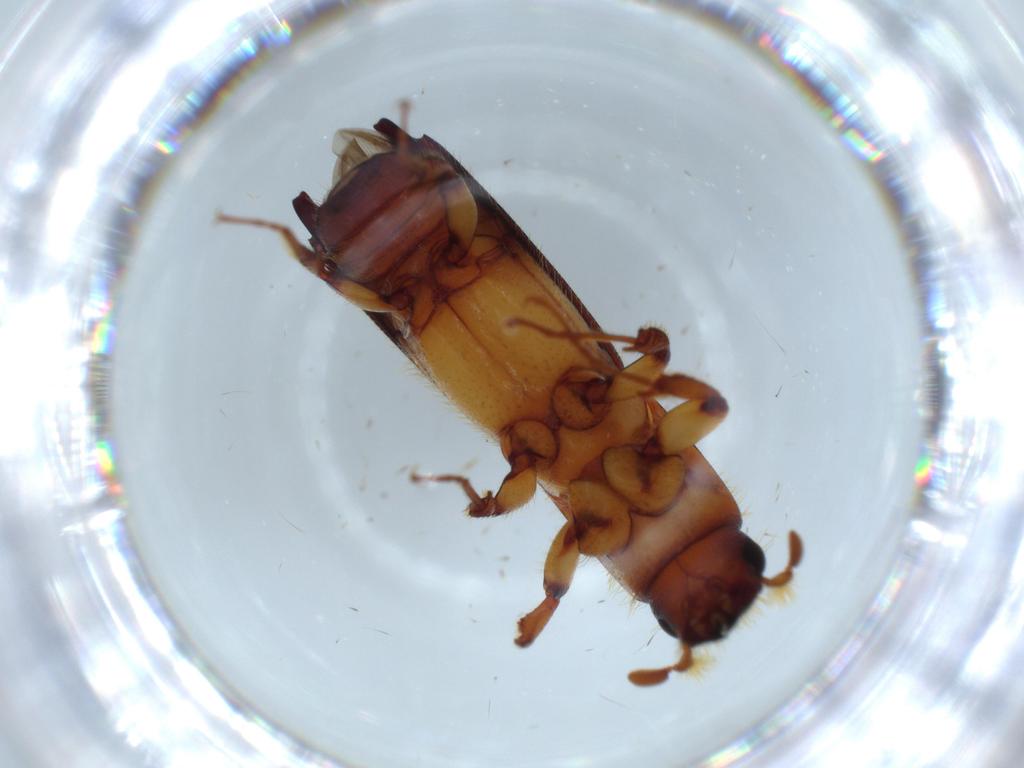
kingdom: Animalia
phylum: Arthropoda
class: Insecta
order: Coleoptera
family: Curculionidae
